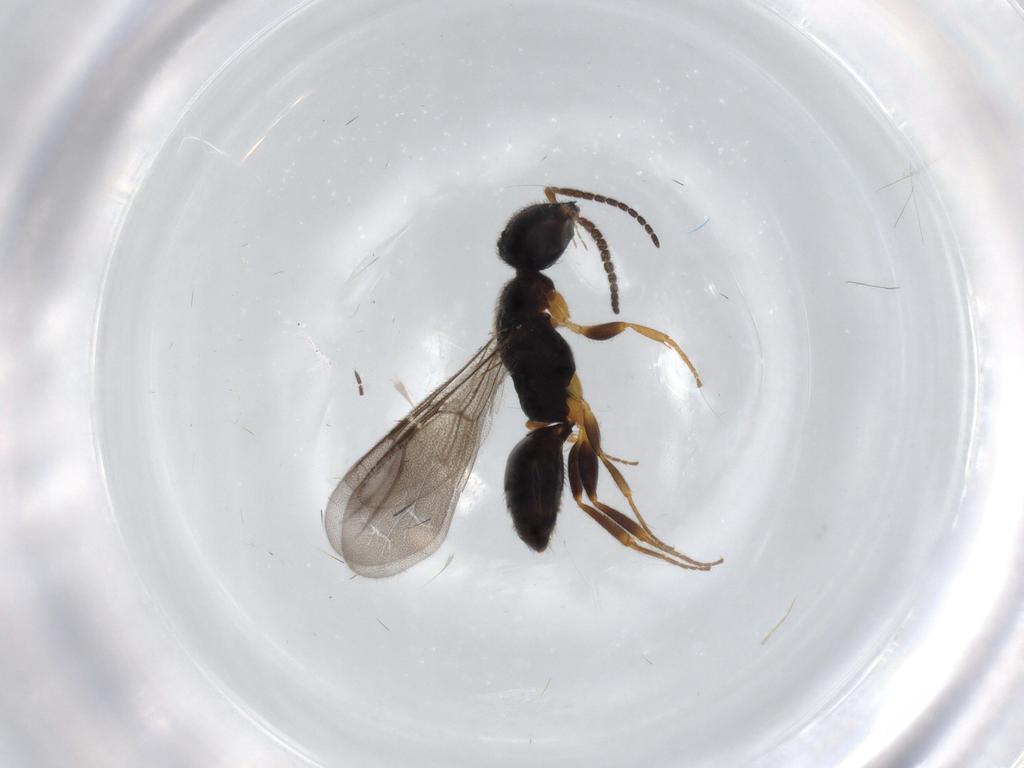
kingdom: Animalia
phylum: Arthropoda
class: Insecta
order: Hymenoptera
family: Bethylidae
